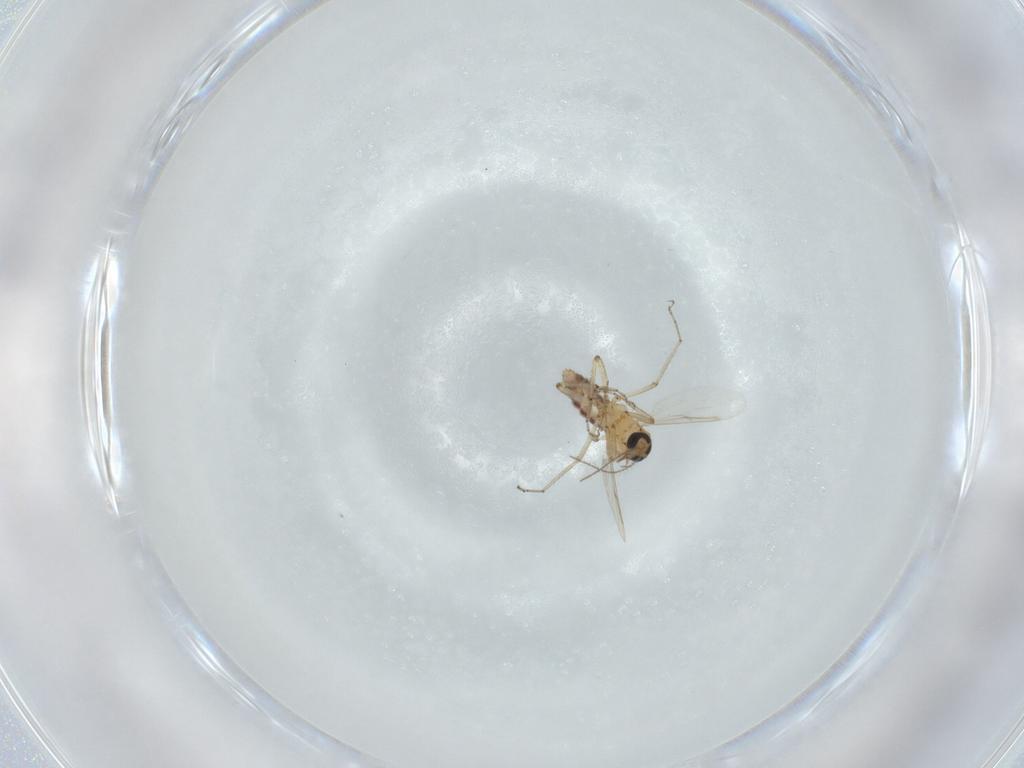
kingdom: Animalia
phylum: Arthropoda
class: Insecta
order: Diptera
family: Ceratopogonidae
